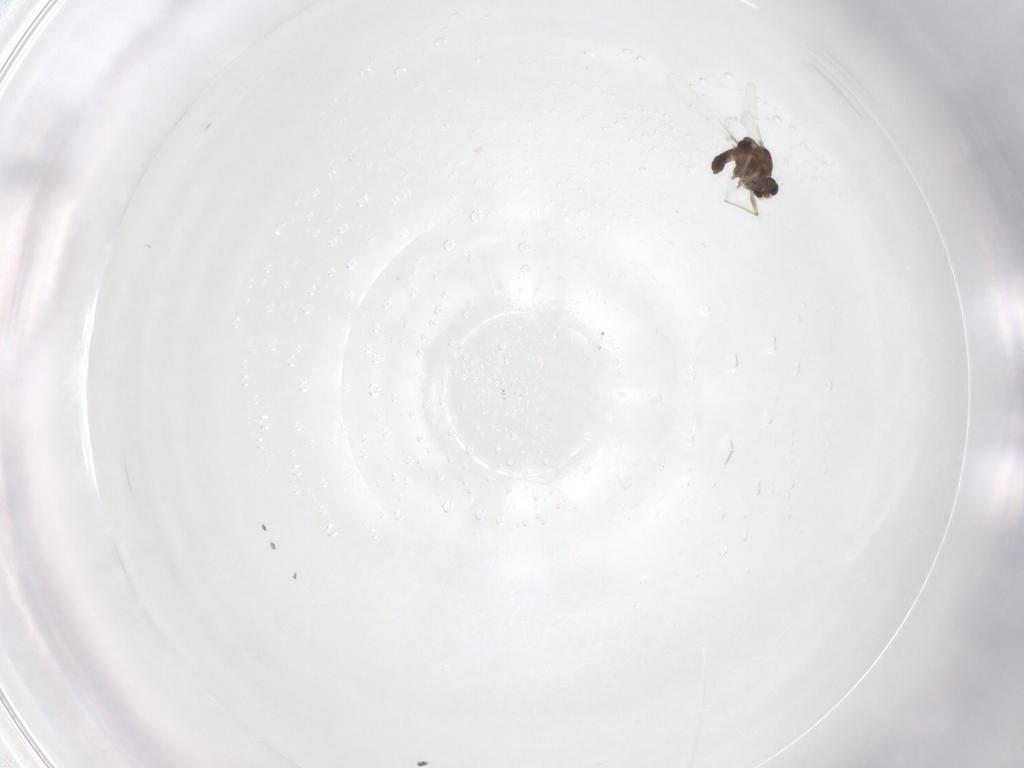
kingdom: Animalia
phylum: Arthropoda
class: Insecta
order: Diptera
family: Chironomidae
